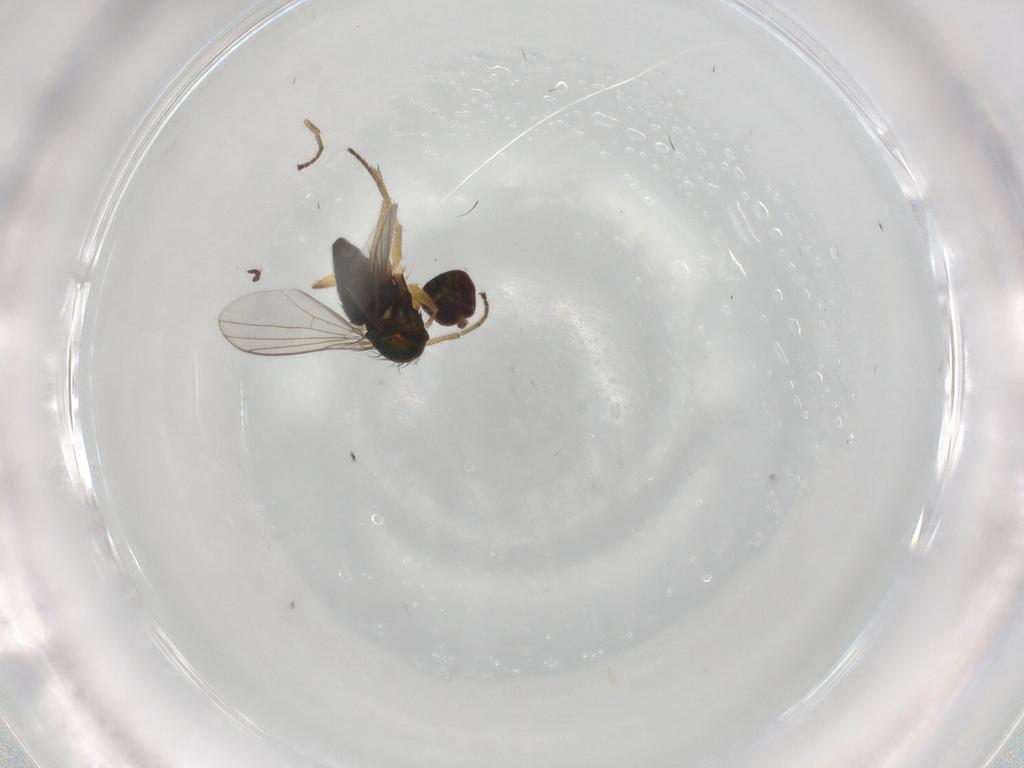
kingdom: Animalia
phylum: Arthropoda
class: Insecta
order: Diptera
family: Limoniidae
